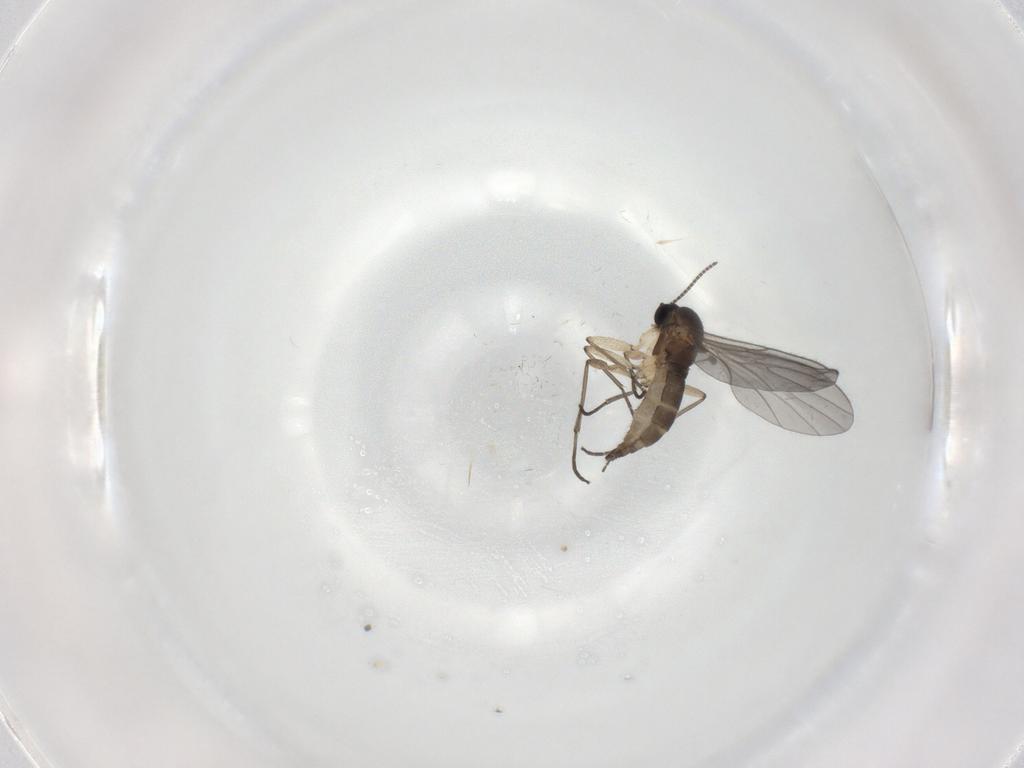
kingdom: Animalia
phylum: Arthropoda
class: Insecta
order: Diptera
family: Sciaridae
